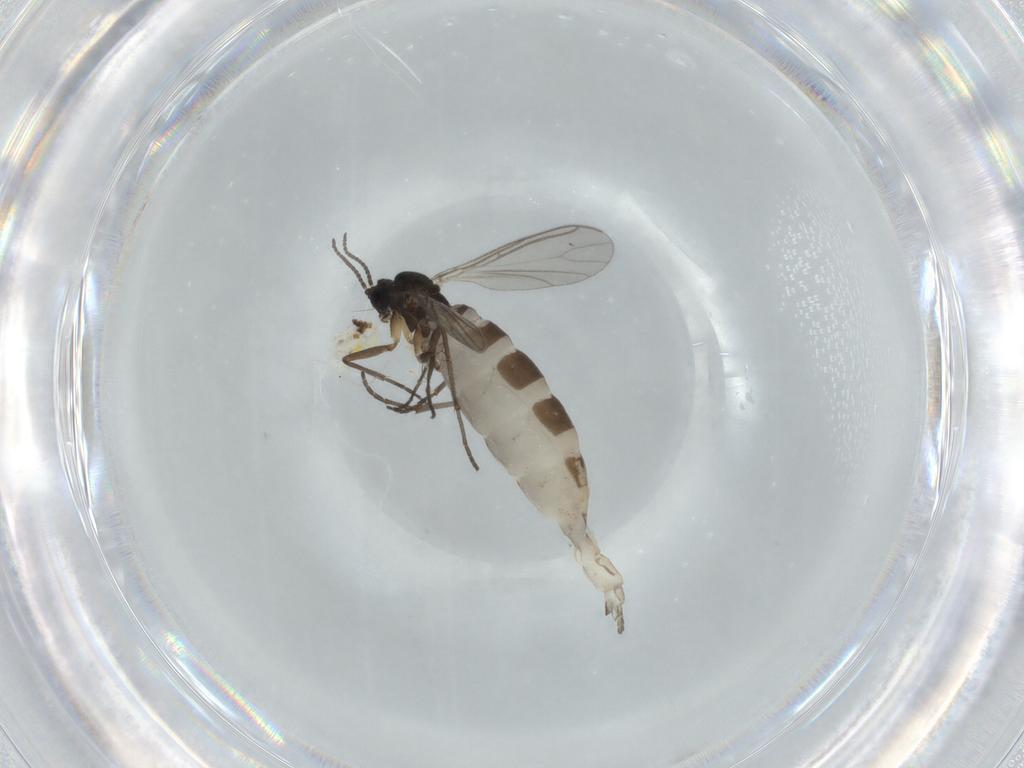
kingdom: Animalia
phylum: Arthropoda
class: Insecta
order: Diptera
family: Sciaridae
